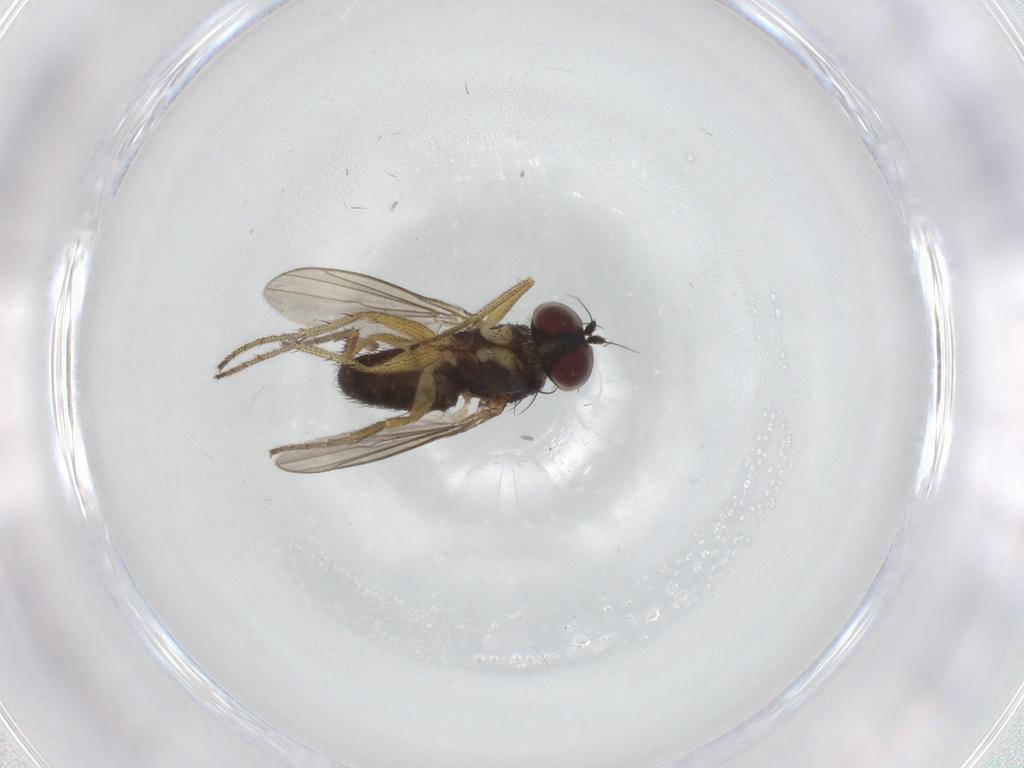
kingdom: Animalia
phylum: Arthropoda
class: Insecta
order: Diptera
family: Cecidomyiidae
